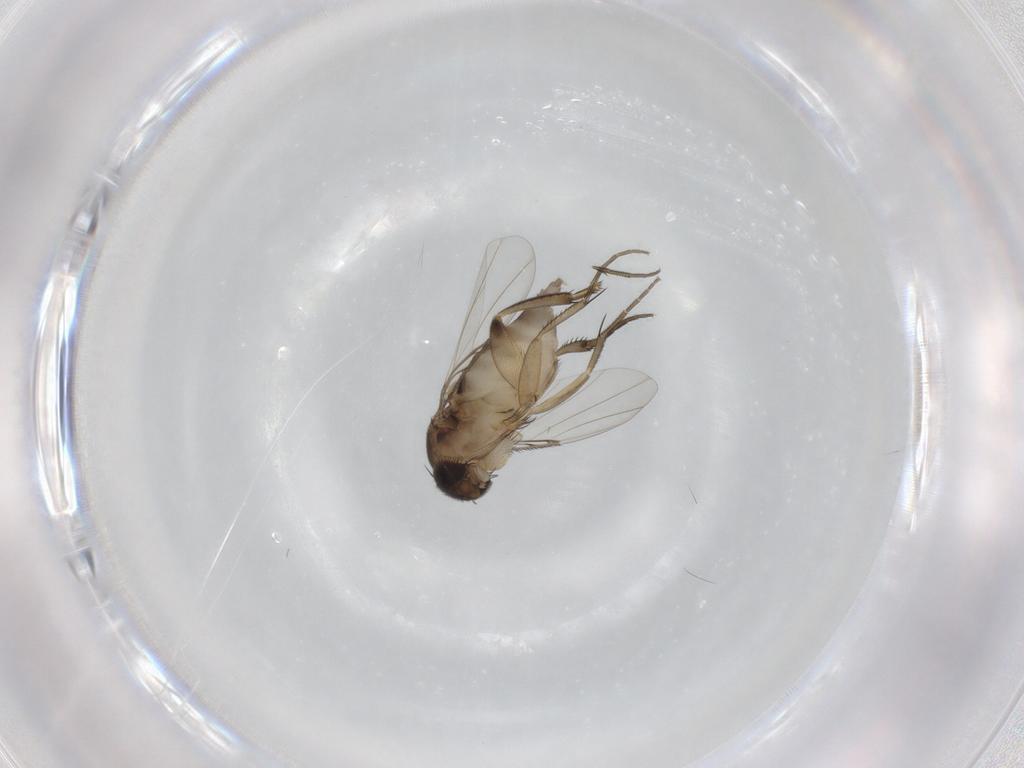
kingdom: Animalia
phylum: Arthropoda
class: Insecta
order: Diptera
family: Phoridae
